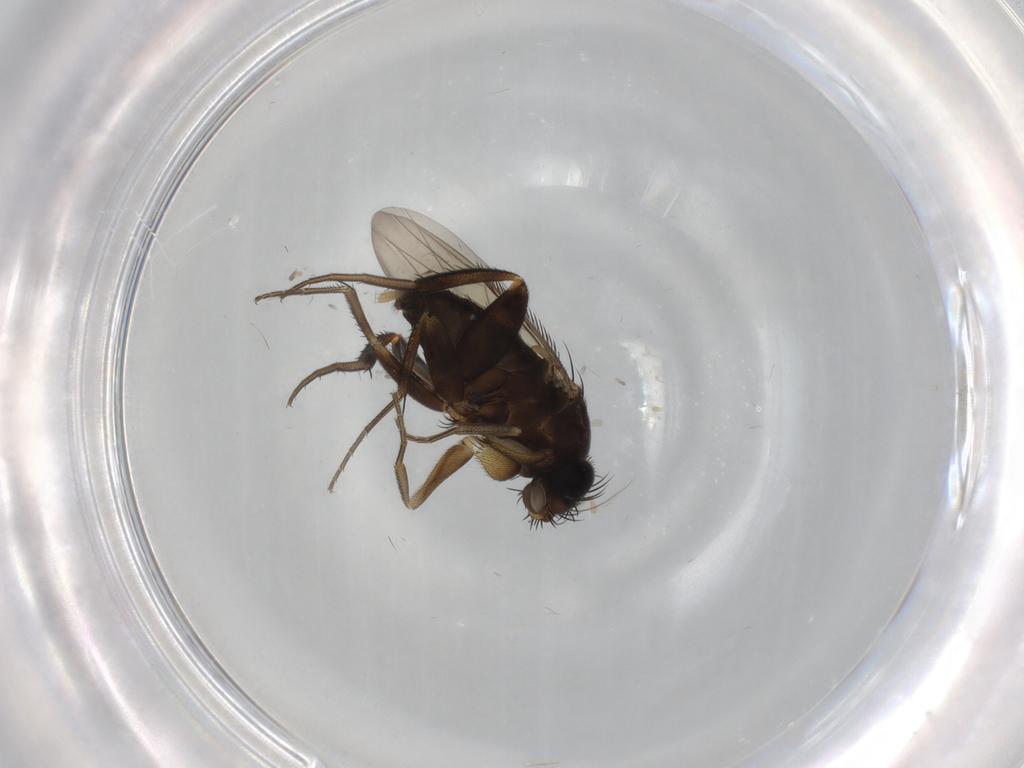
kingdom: Animalia
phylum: Arthropoda
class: Insecta
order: Diptera
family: Phoridae
